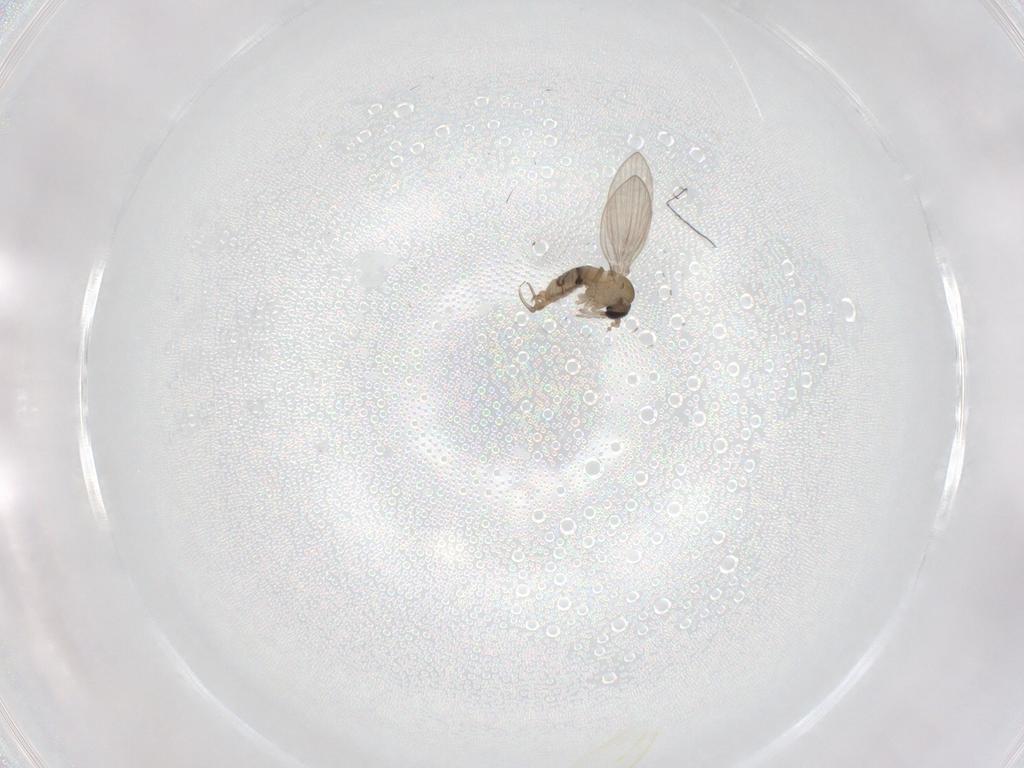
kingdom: Animalia
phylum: Arthropoda
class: Insecta
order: Diptera
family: Psychodidae
